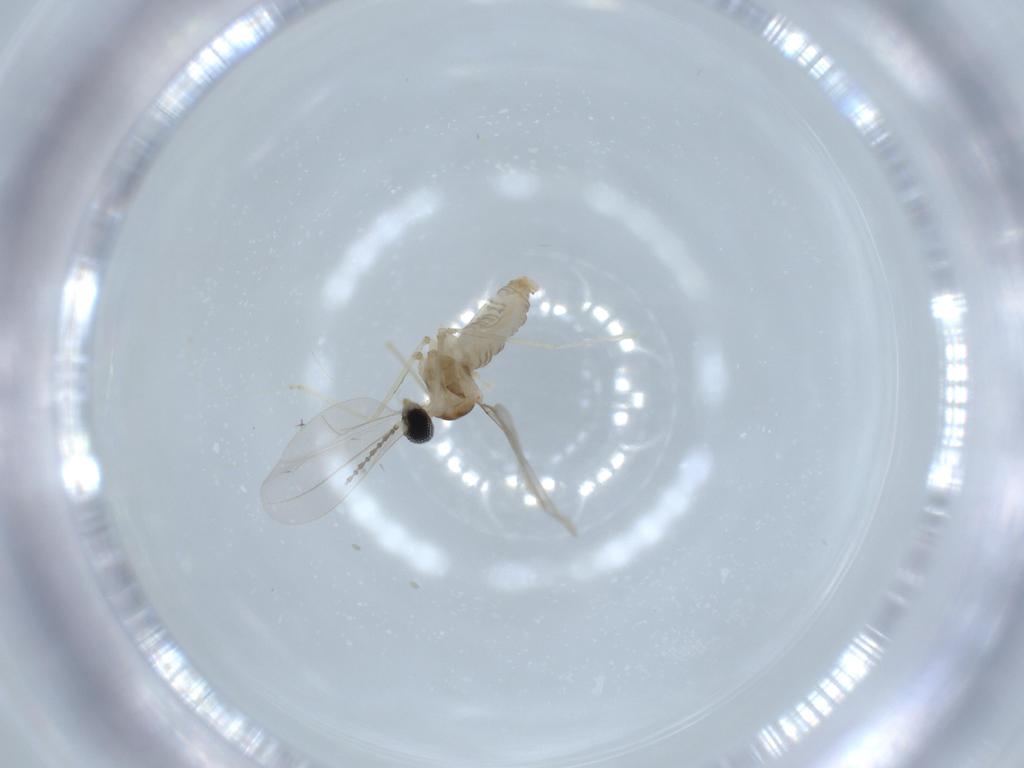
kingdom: Animalia
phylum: Arthropoda
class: Insecta
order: Diptera
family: Cecidomyiidae
